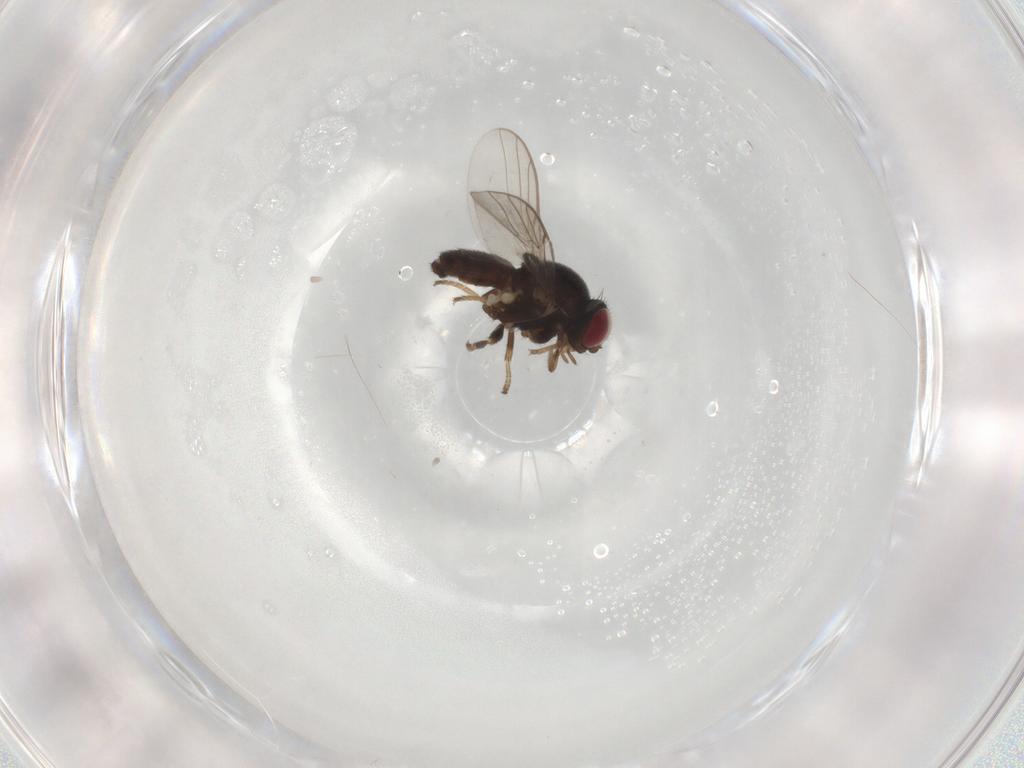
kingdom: Animalia
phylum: Arthropoda
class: Insecta
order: Diptera
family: Chloropidae
